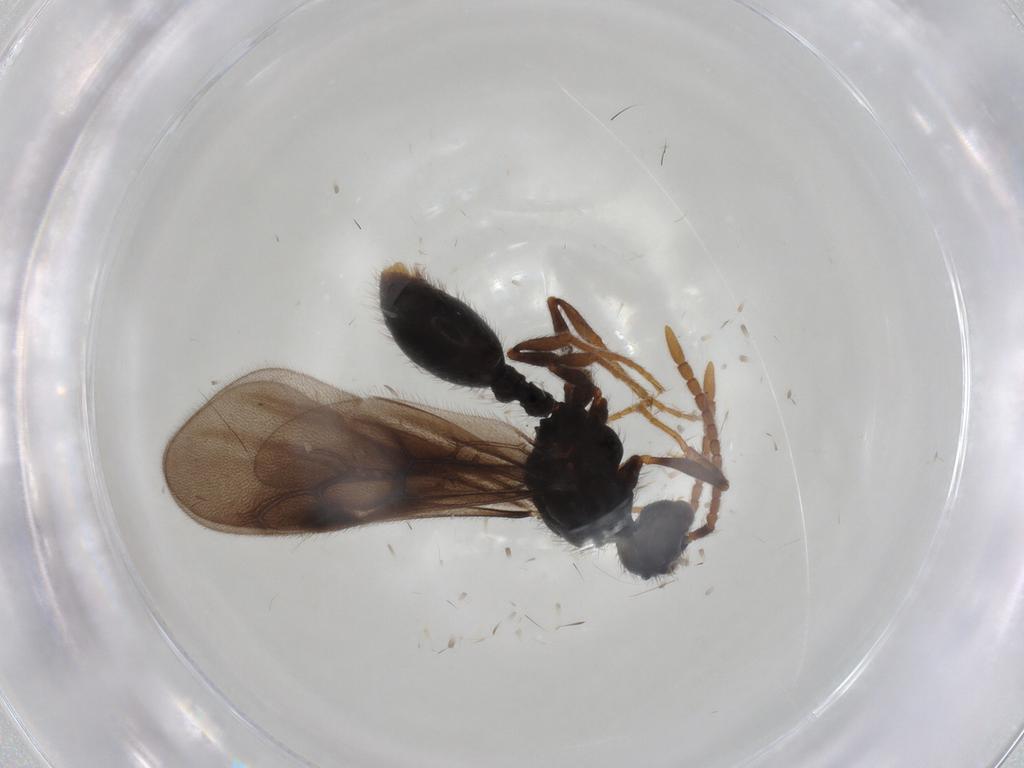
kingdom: Animalia
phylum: Arthropoda
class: Insecta
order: Hymenoptera
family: Formicidae
